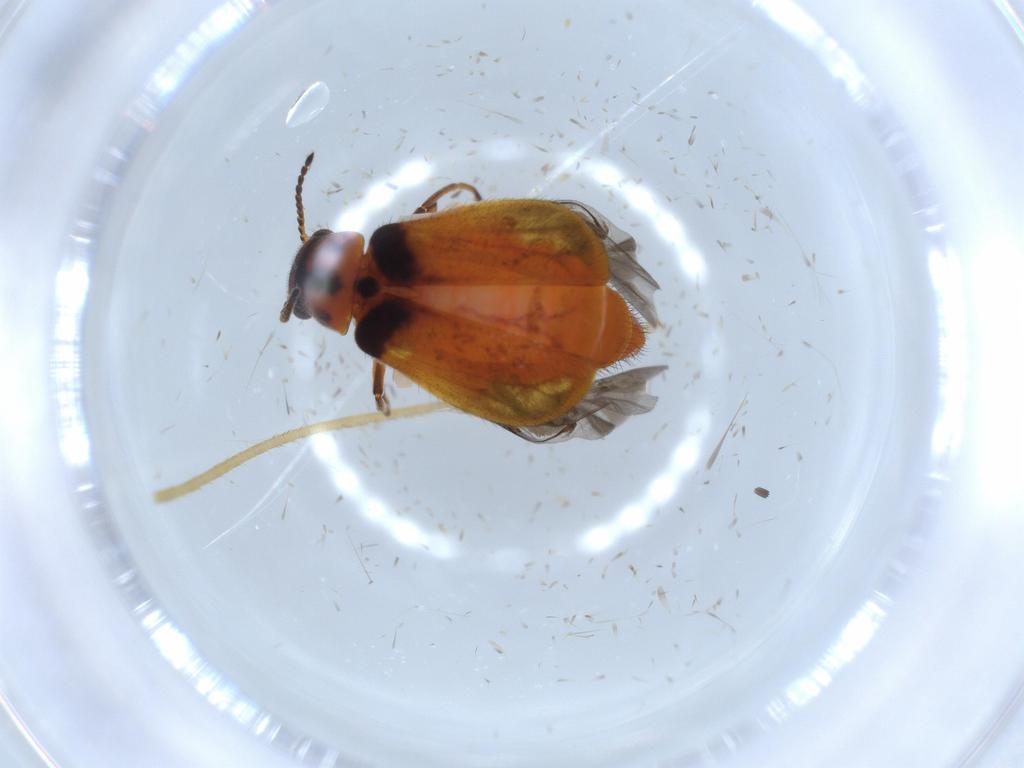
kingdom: Animalia
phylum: Arthropoda
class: Insecta
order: Coleoptera
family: Melyridae
